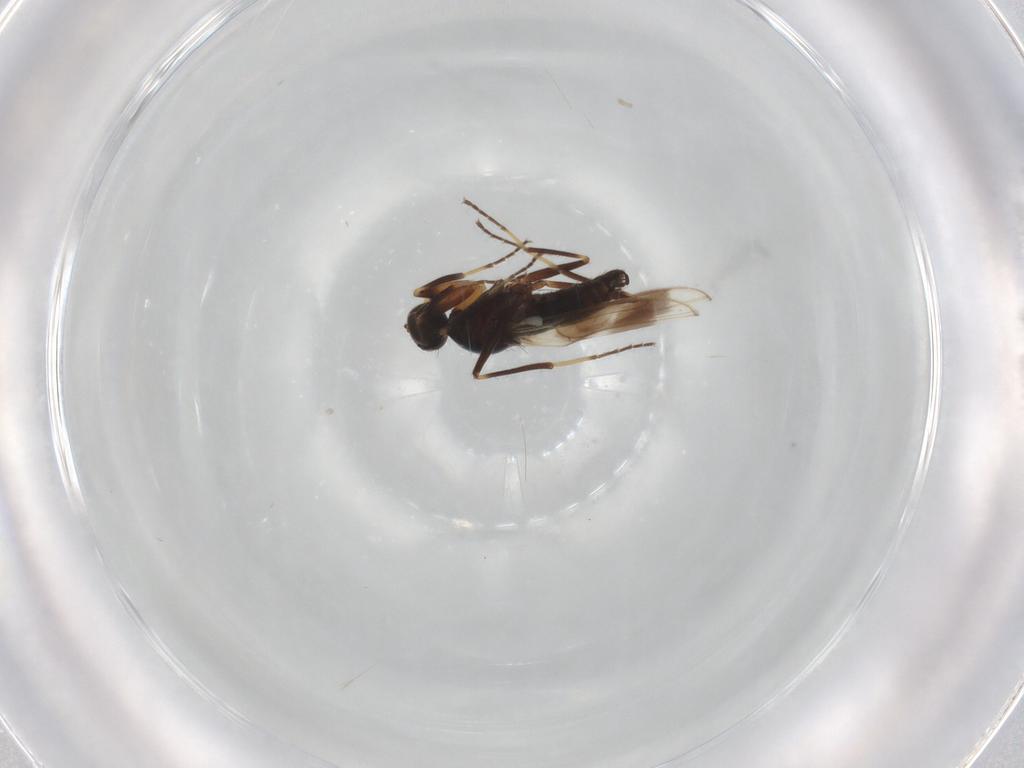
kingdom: Animalia
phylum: Arthropoda
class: Insecta
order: Diptera
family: Hybotidae
